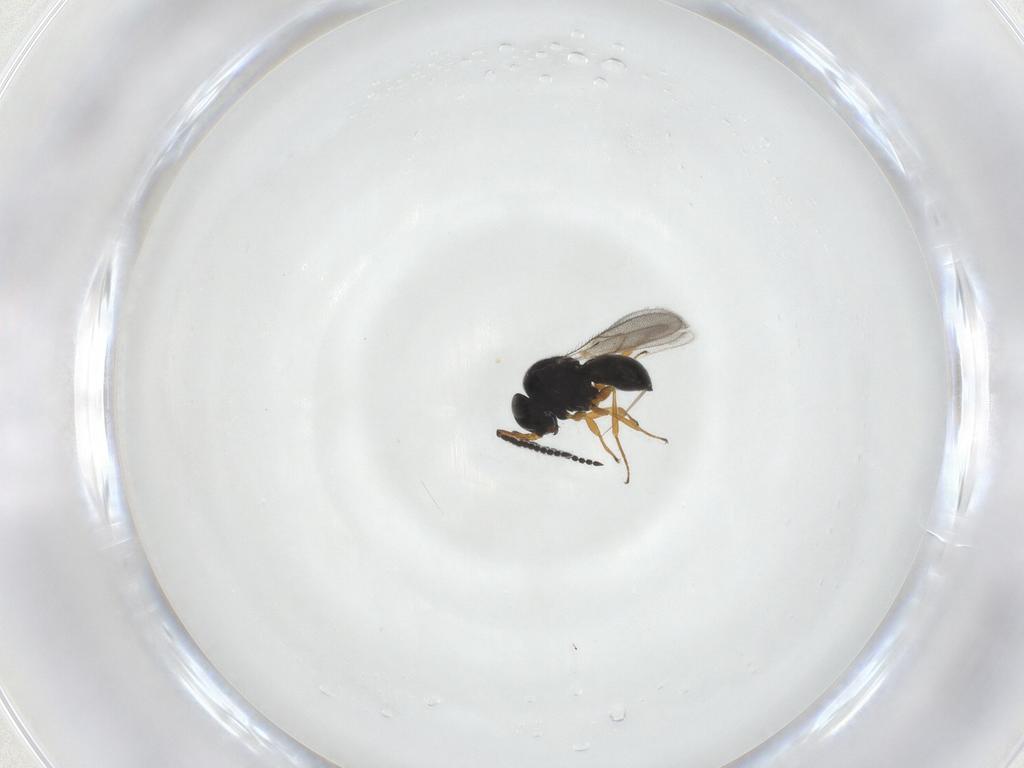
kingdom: Animalia
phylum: Arthropoda
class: Insecta
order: Hymenoptera
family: Scelionidae
